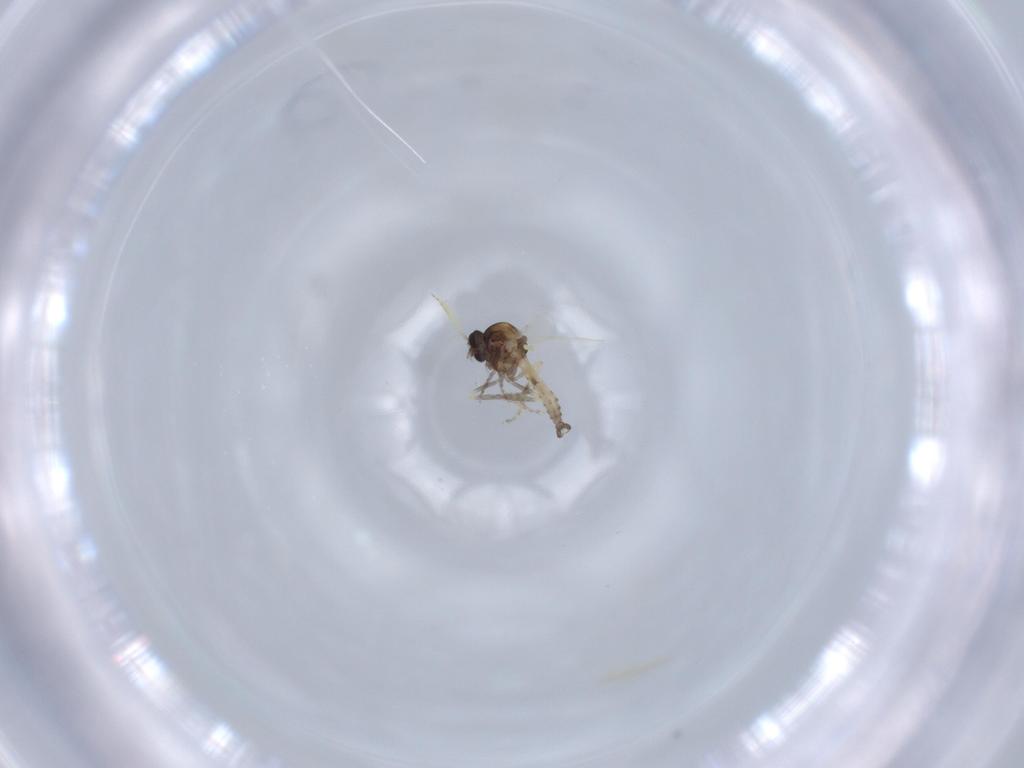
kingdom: Animalia
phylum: Arthropoda
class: Insecta
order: Diptera
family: Ceratopogonidae
